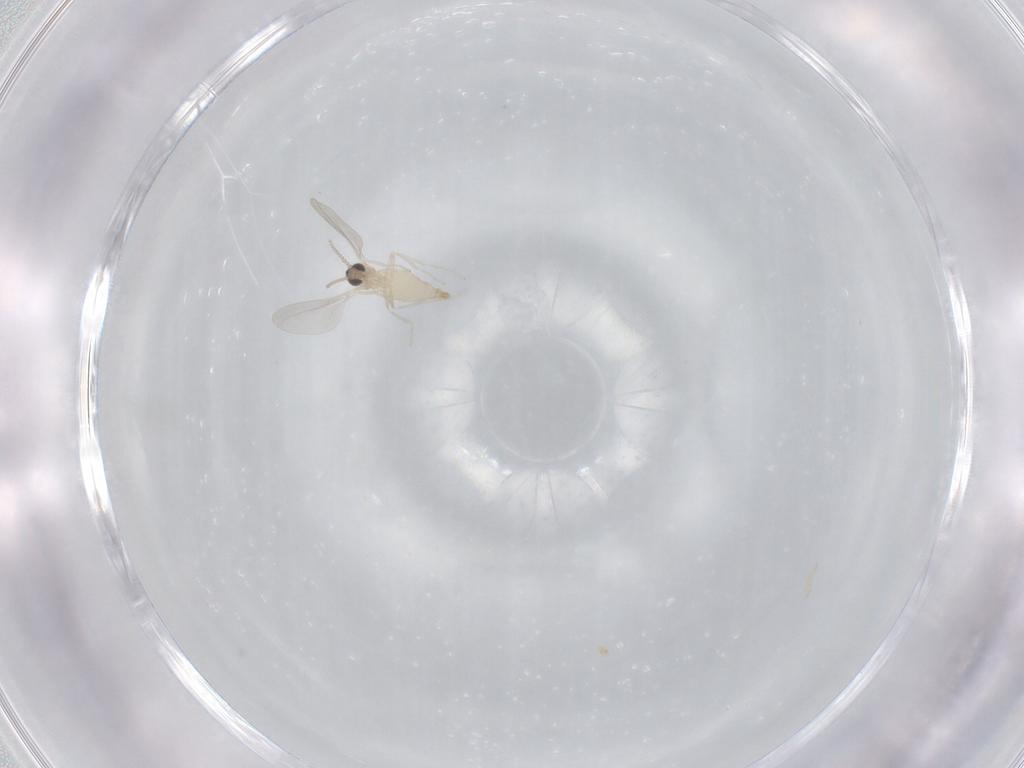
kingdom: Animalia
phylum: Arthropoda
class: Insecta
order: Diptera
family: Cecidomyiidae
